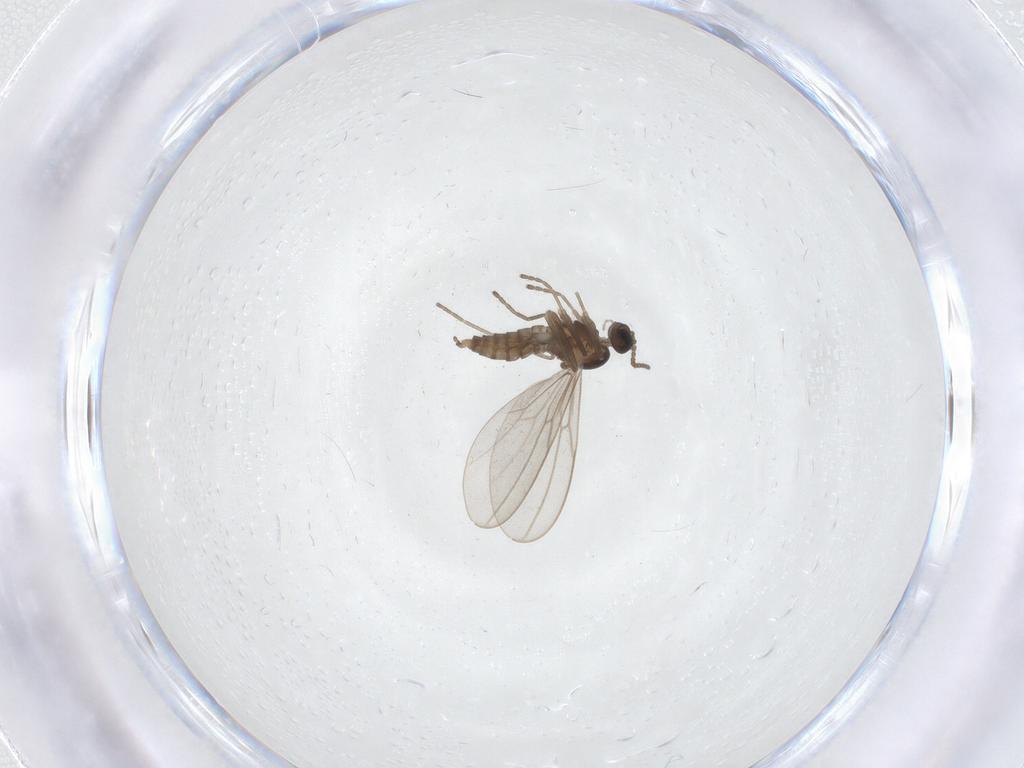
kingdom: Animalia
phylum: Arthropoda
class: Insecta
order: Diptera
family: Cecidomyiidae
